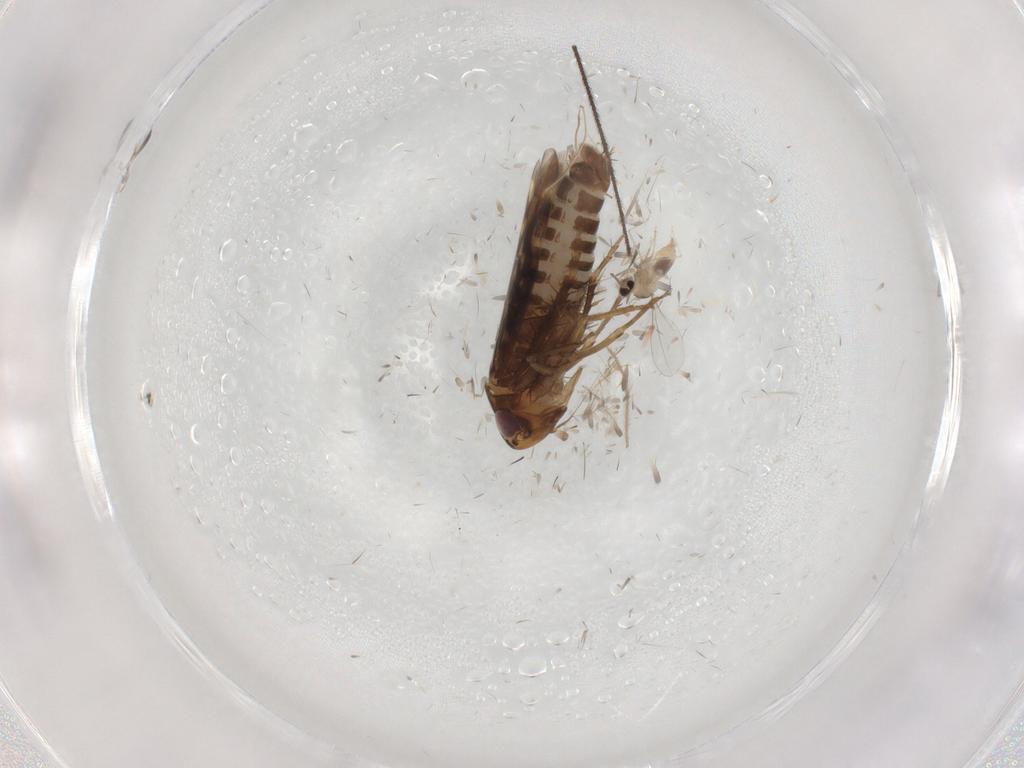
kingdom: Animalia
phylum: Arthropoda
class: Insecta
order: Hemiptera
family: Cicadellidae
